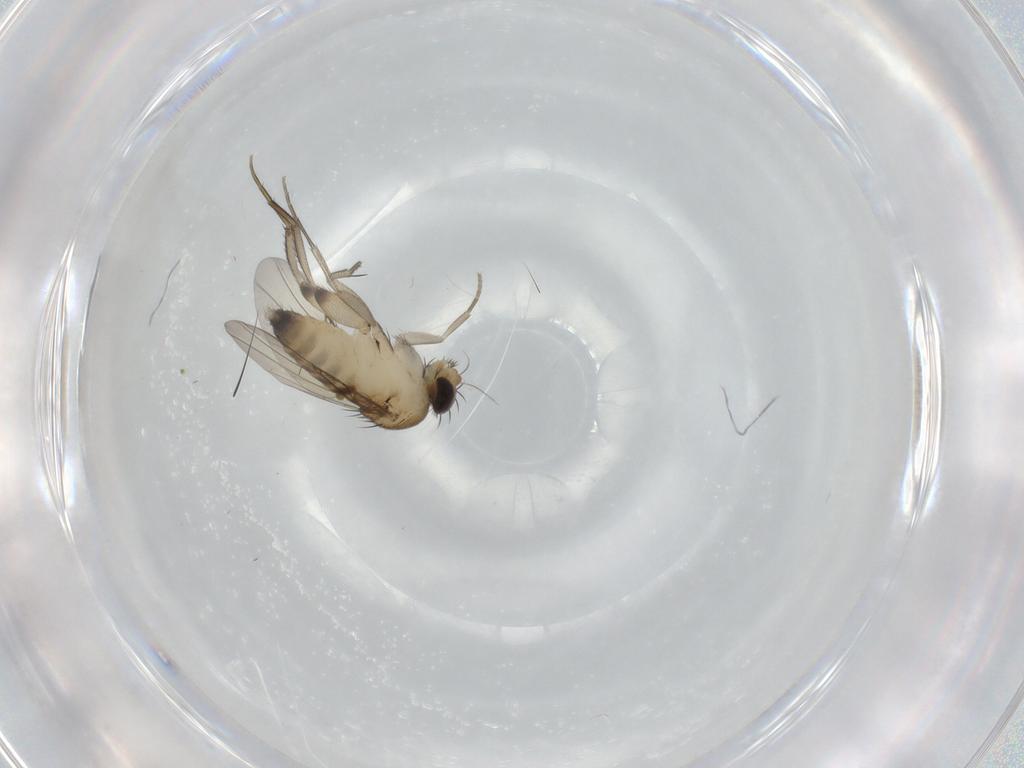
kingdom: Animalia
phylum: Arthropoda
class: Insecta
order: Diptera
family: Phoridae
